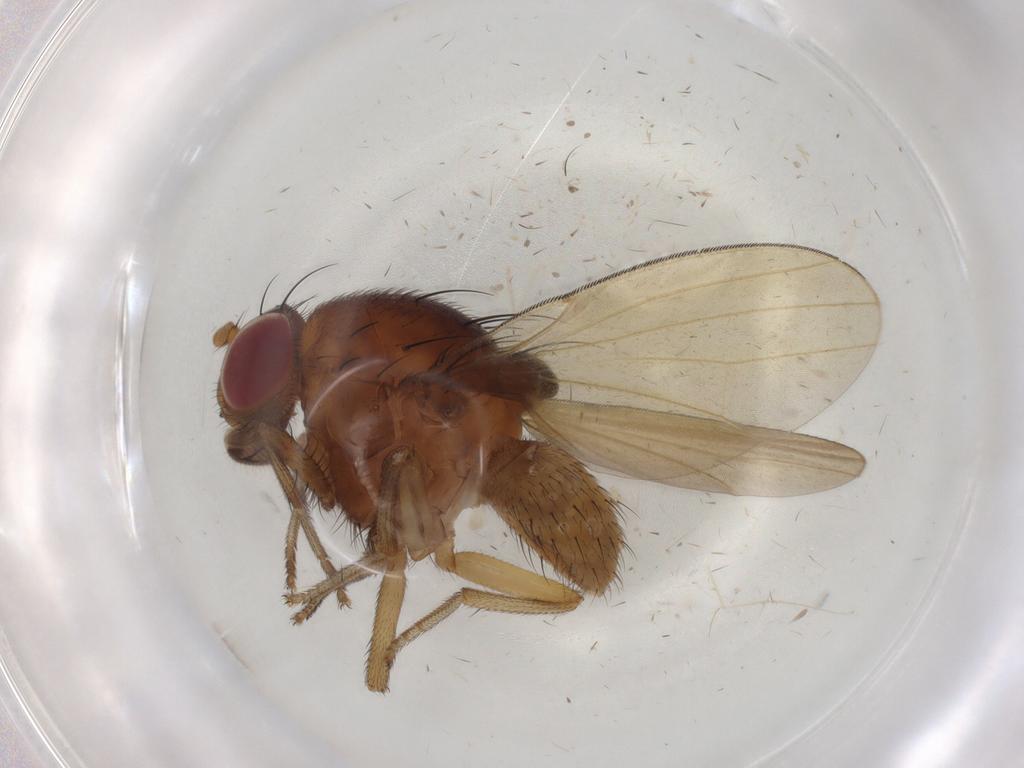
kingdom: Animalia
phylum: Arthropoda
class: Insecta
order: Diptera
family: Lauxaniidae
